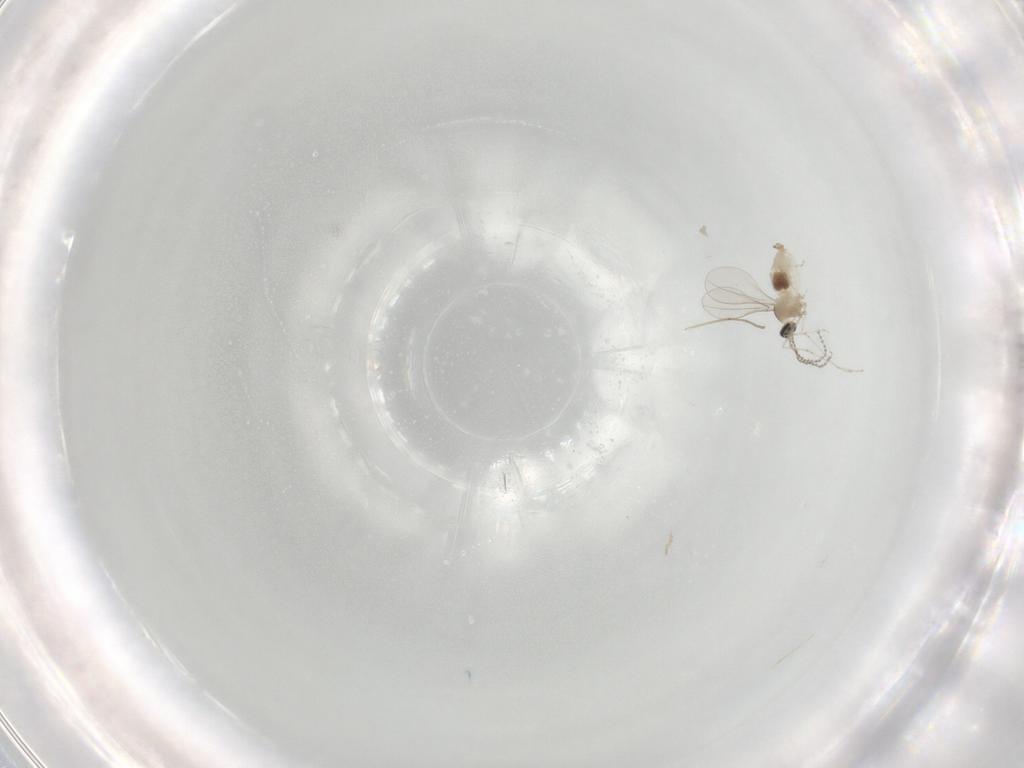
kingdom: Animalia
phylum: Arthropoda
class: Insecta
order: Diptera
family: Cecidomyiidae
